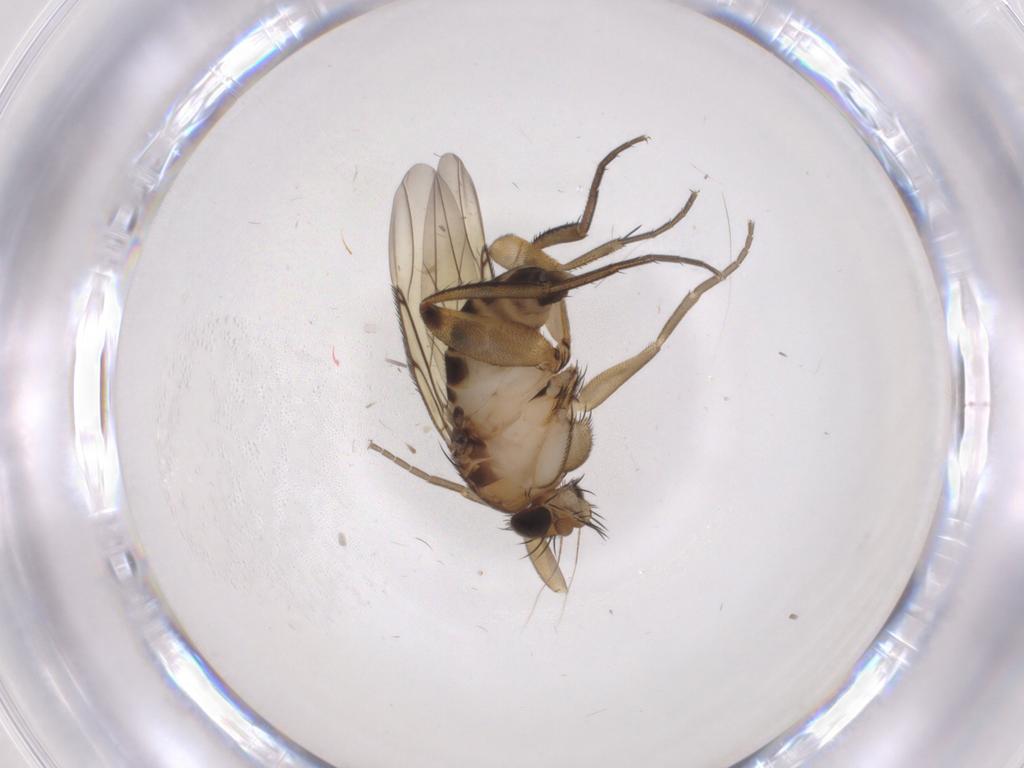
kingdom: Animalia
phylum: Arthropoda
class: Insecta
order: Diptera
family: Phoridae
